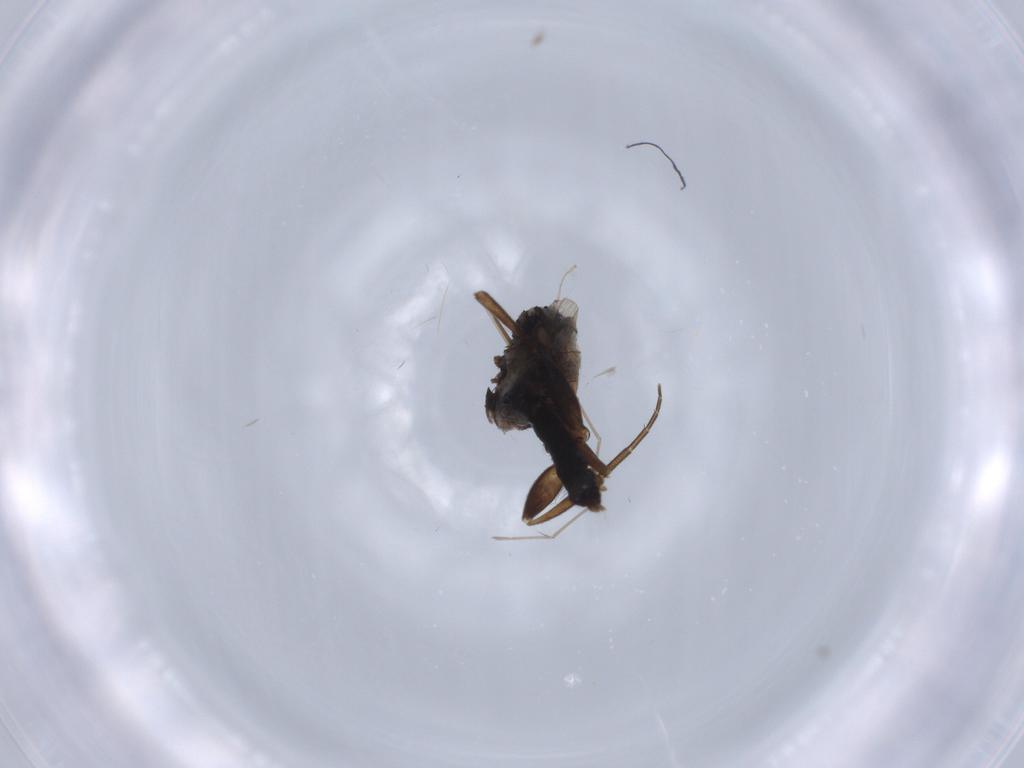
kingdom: Animalia
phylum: Arthropoda
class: Insecta
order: Diptera
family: Phoridae
